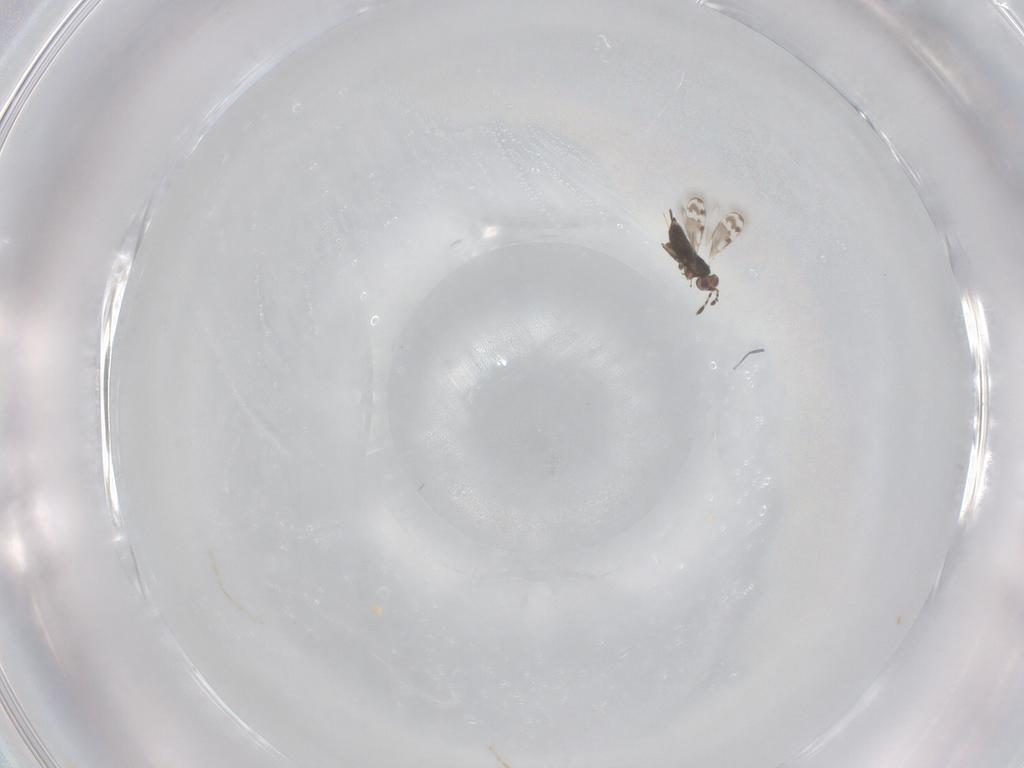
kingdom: Animalia
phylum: Arthropoda
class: Insecta
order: Hymenoptera
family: Aphelinidae
